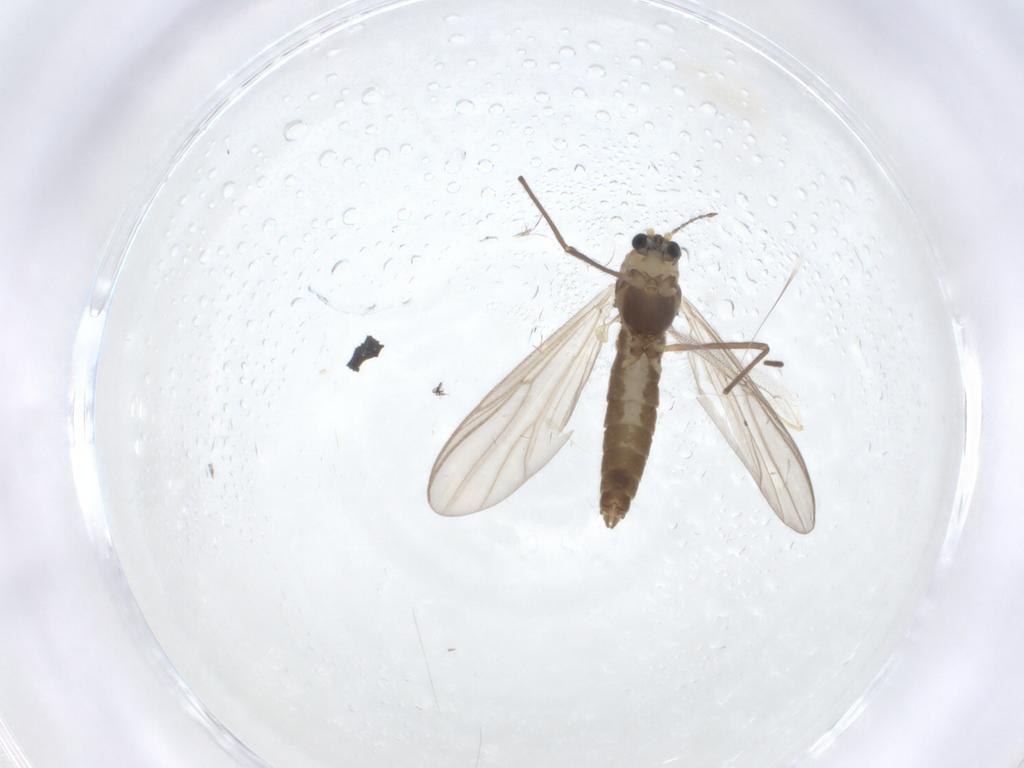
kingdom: Animalia
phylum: Arthropoda
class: Insecta
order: Diptera
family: Chironomidae
